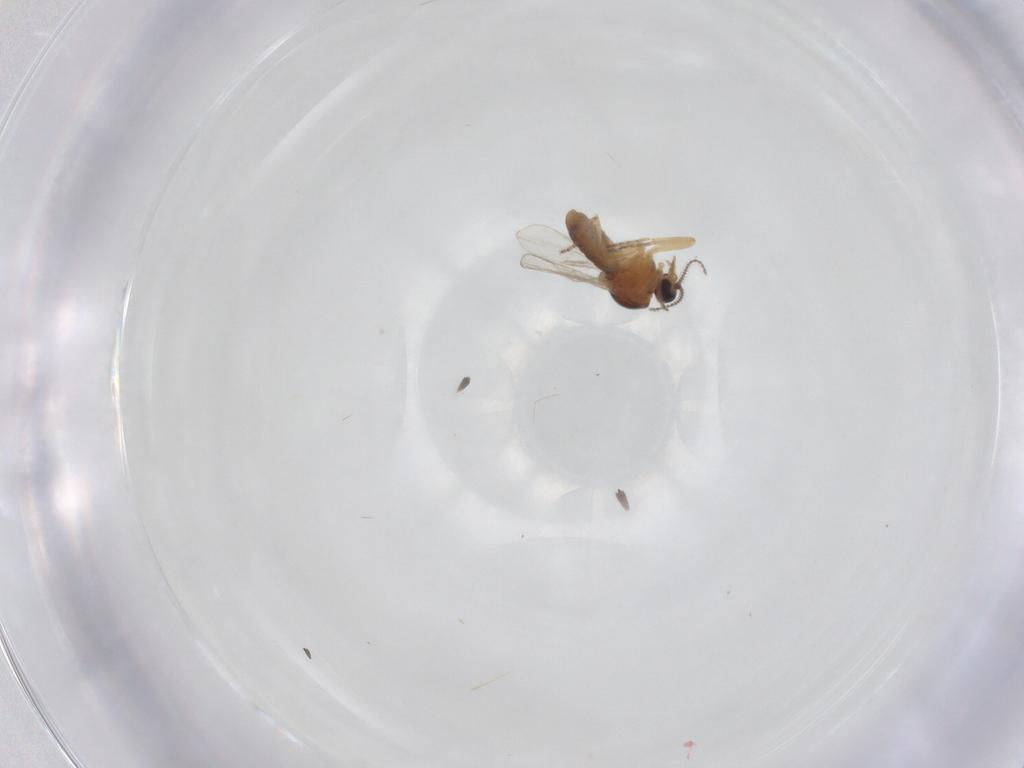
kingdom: Animalia
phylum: Arthropoda
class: Insecta
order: Diptera
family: Ceratopogonidae
